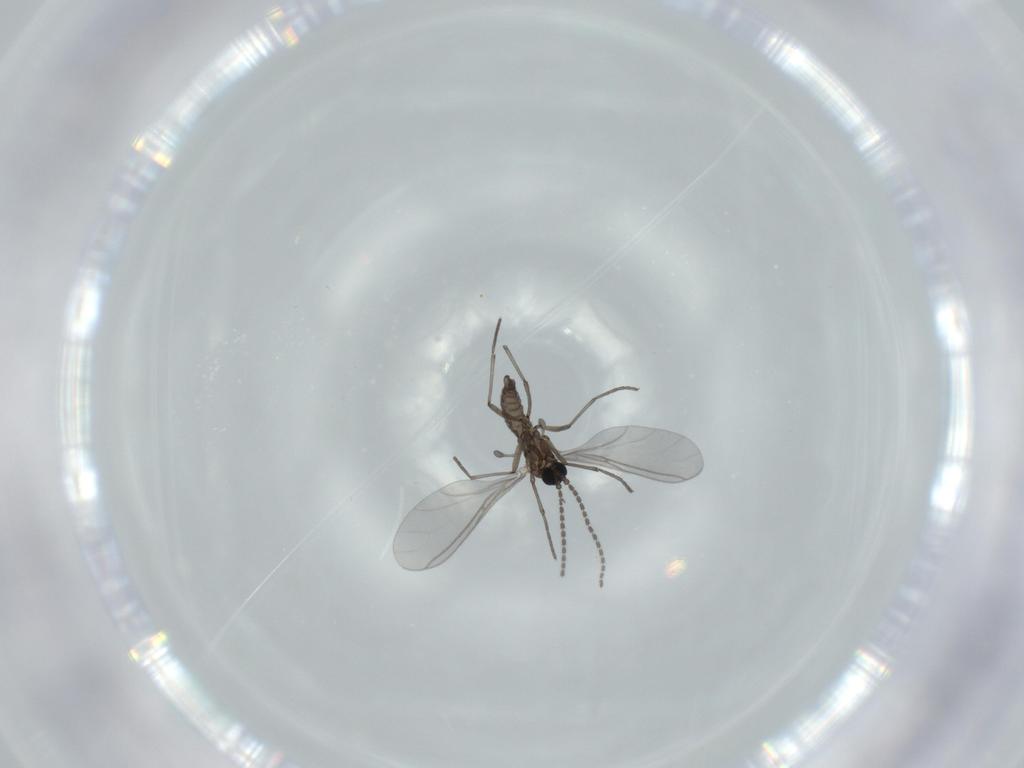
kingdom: Animalia
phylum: Arthropoda
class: Insecta
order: Diptera
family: Sciaridae
